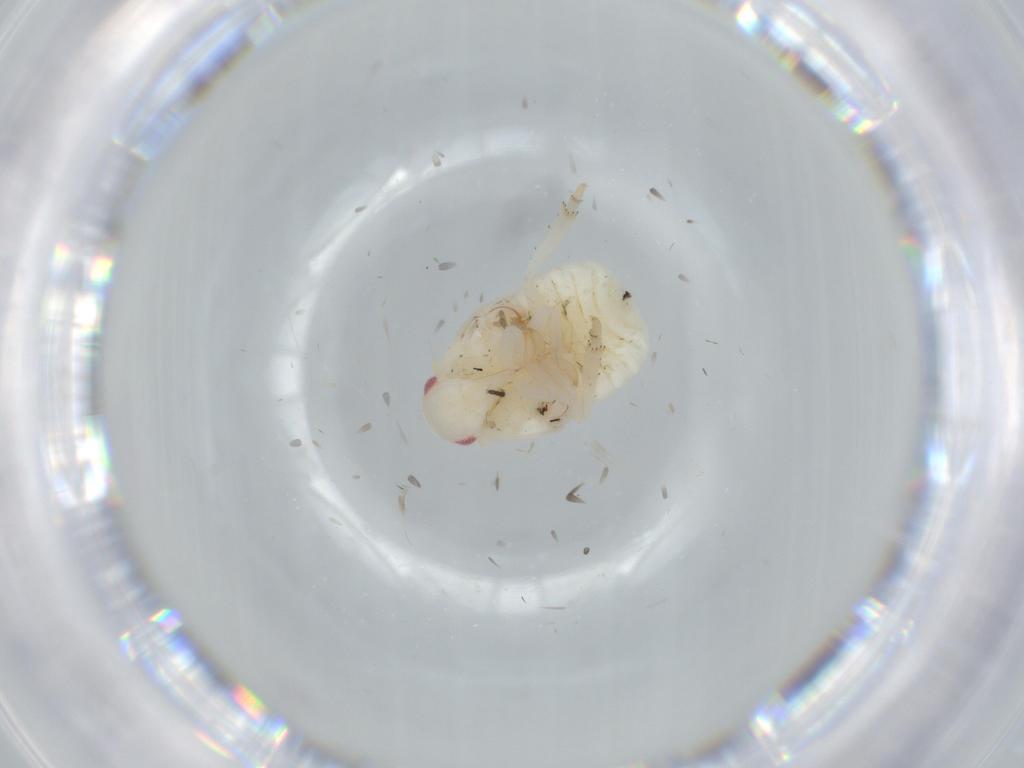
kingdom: Animalia
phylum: Arthropoda
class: Insecta
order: Hemiptera
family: Flatidae
